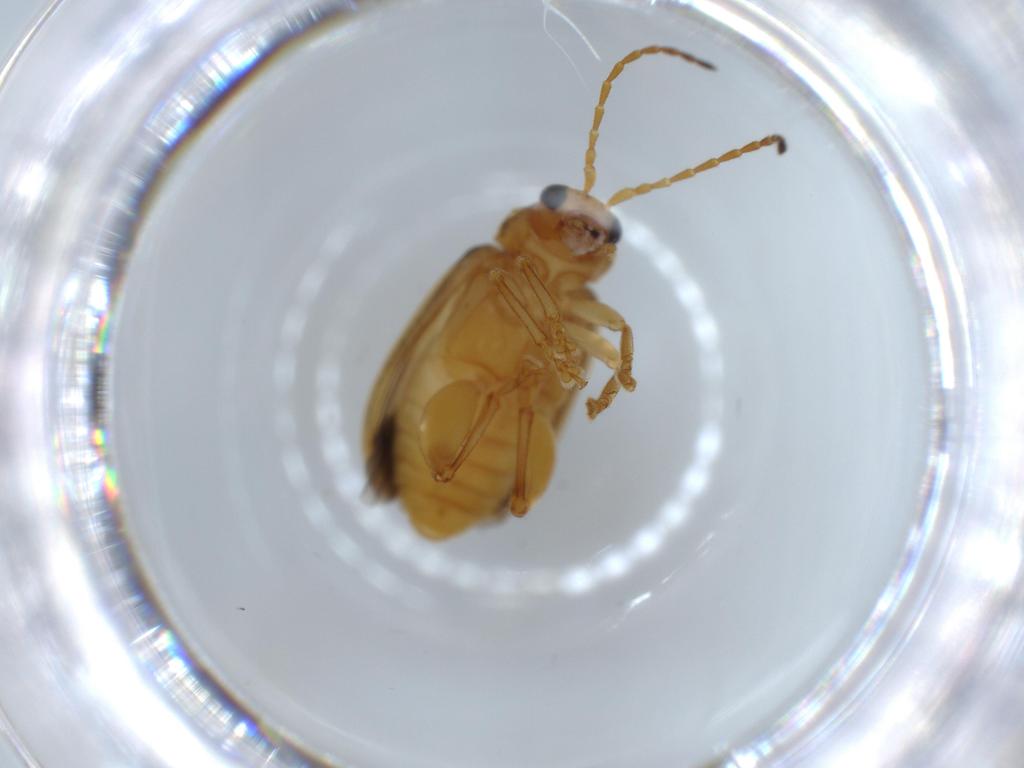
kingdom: Animalia
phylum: Arthropoda
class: Insecta
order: Coleoptera
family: Chrysomelidae
